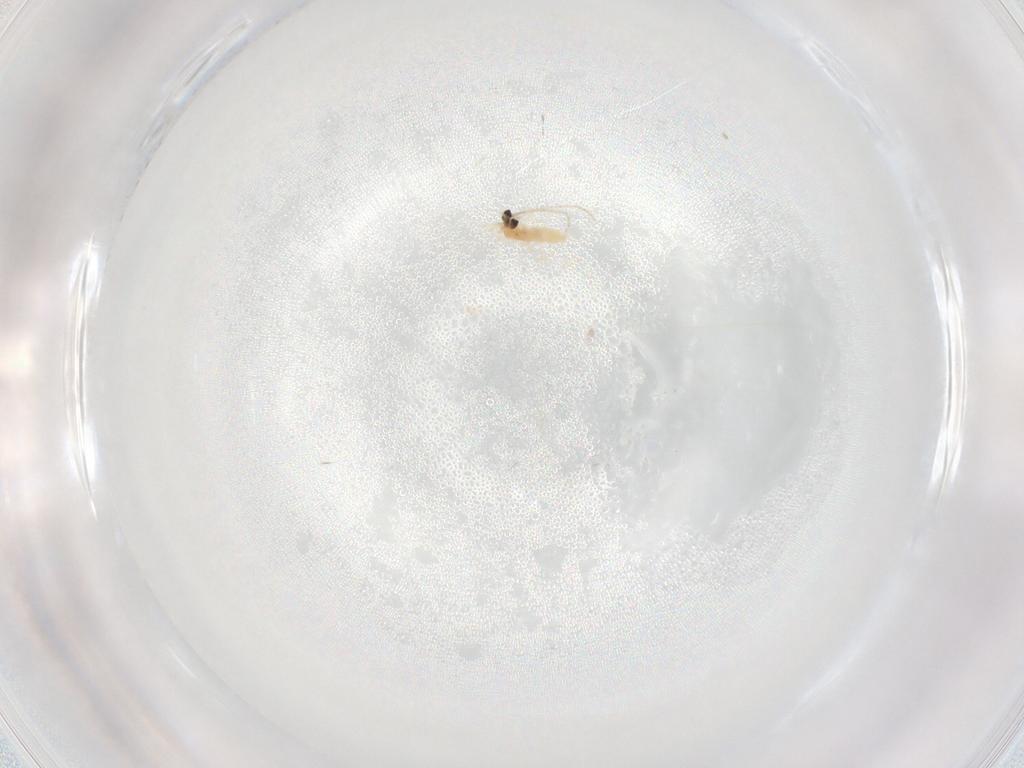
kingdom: Animalia
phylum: Arthropoda
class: Insecta
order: Diptera
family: Cecidomyiidae
